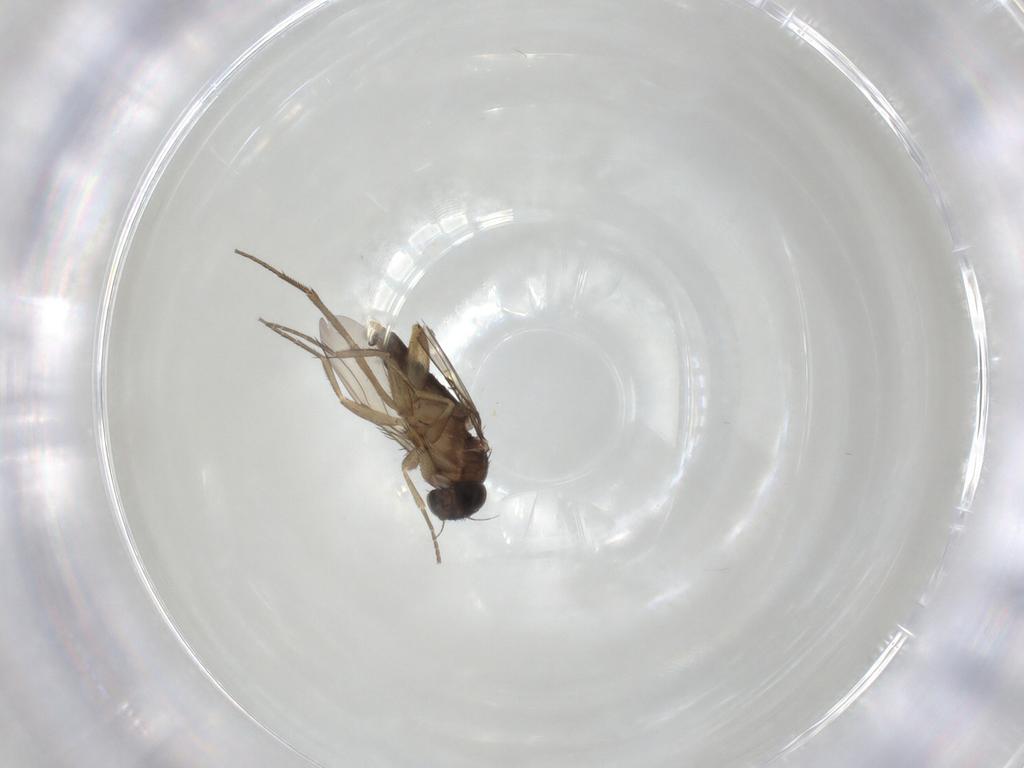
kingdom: Animalia
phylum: Arthropoda
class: Insecta
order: Diptera
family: Phoridae
